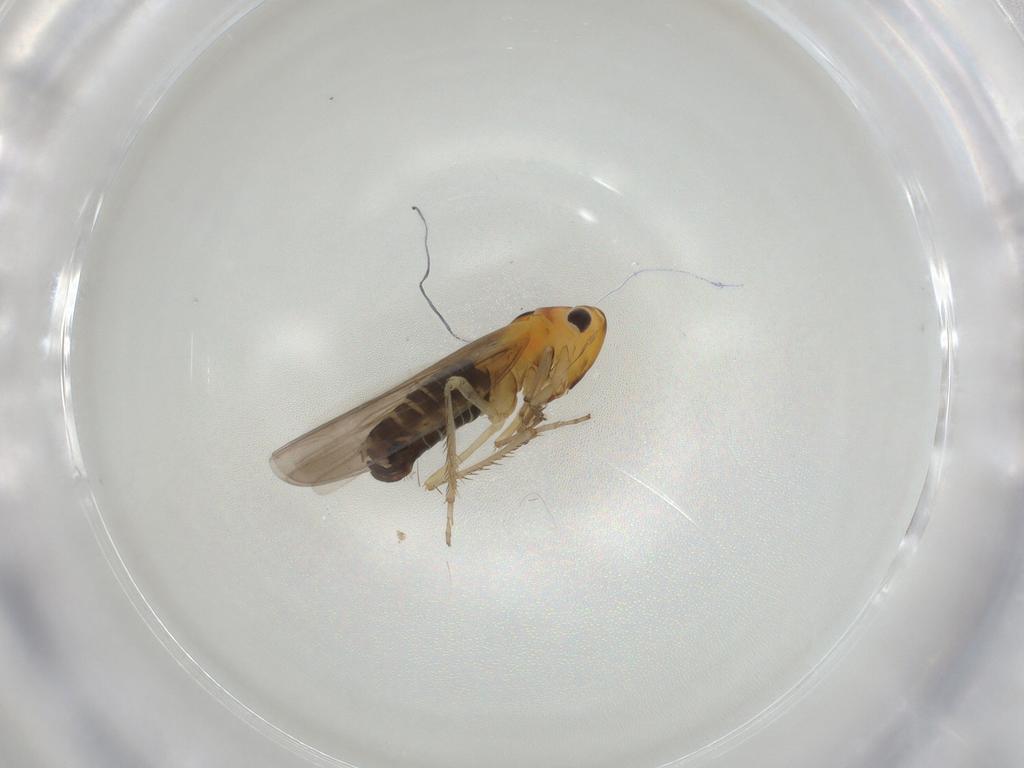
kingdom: Animalia
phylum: Arthropoda
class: Insecta
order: Hemiptera
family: Cicadellidae
